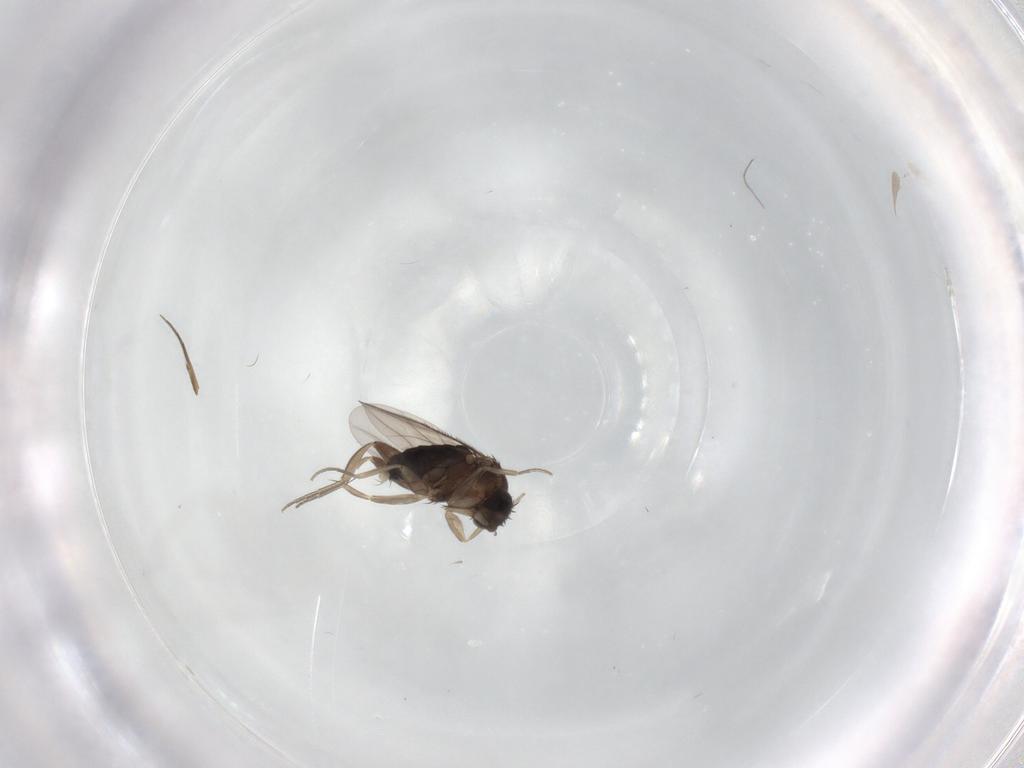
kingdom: Animalia
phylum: Arthropoda
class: Insecta
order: Diptera
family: Phoridae
